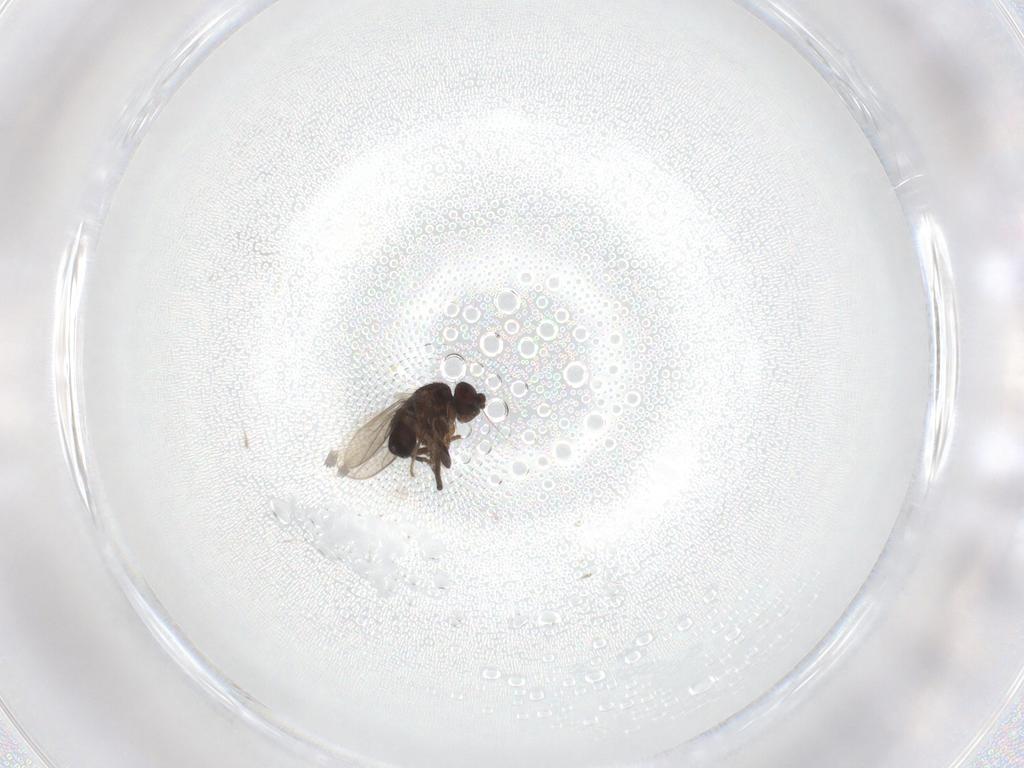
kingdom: Animalia
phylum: Arthropoda
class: Insecta
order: Diptera
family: Sphaeroceridae
